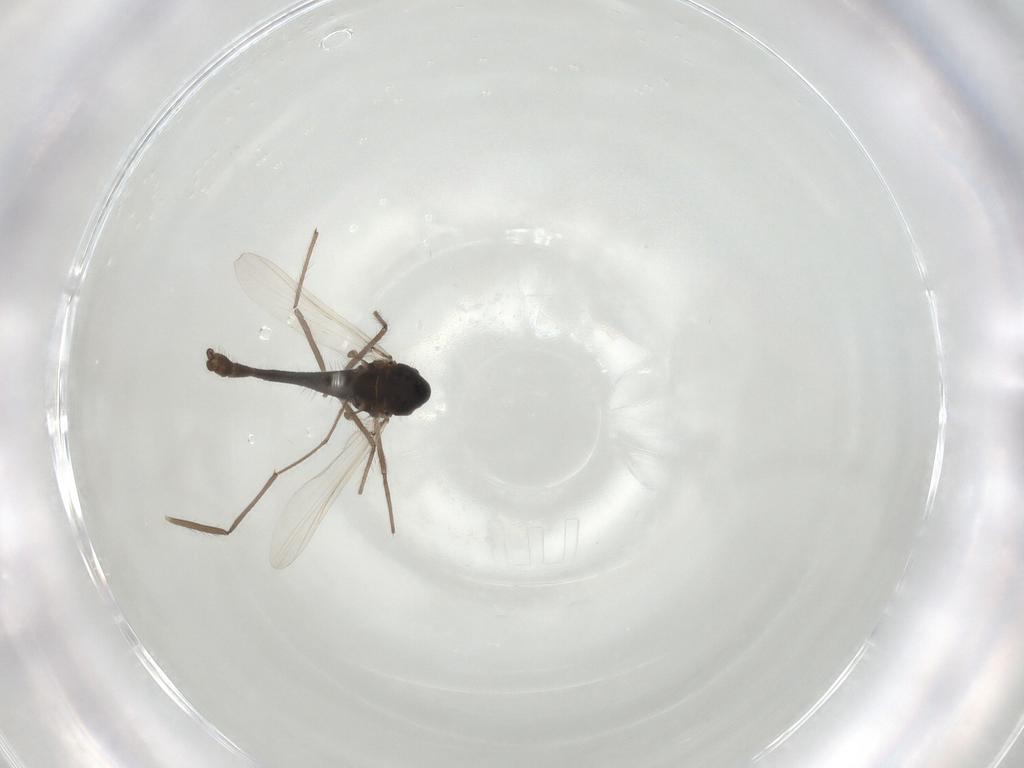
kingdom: Animalia
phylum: Arthropoda
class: Insecta
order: Diptera
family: Chironomidae
